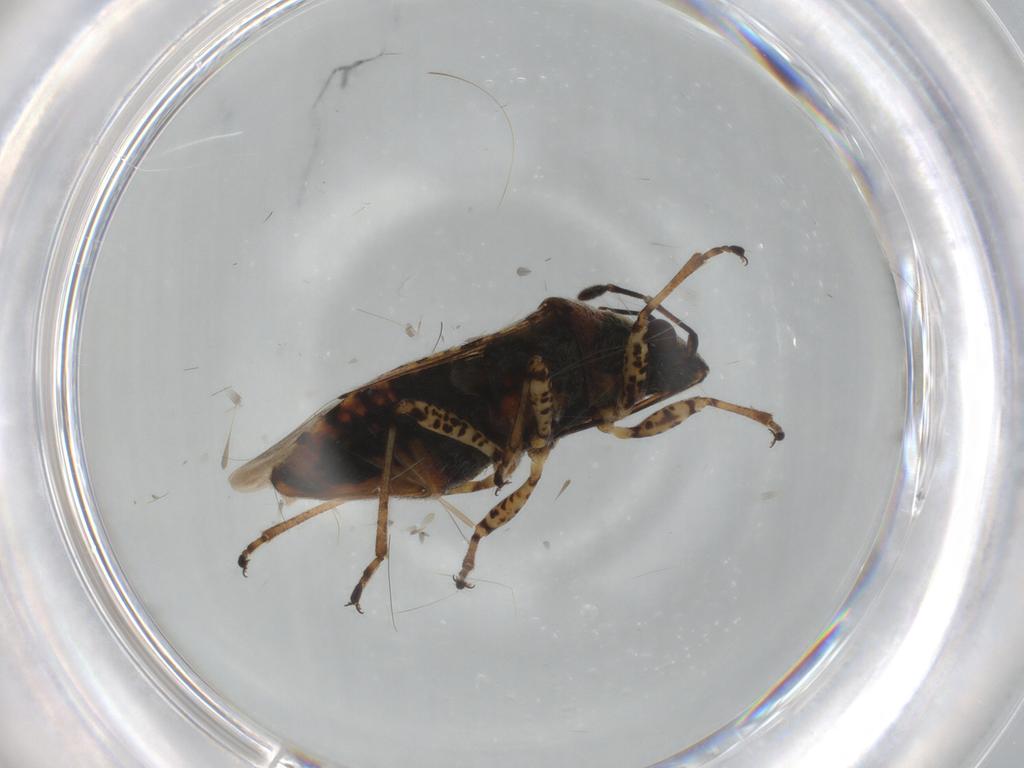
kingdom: Animalia
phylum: Arthropoda
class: Insecta
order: Hemiptera
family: Lygaeidae
